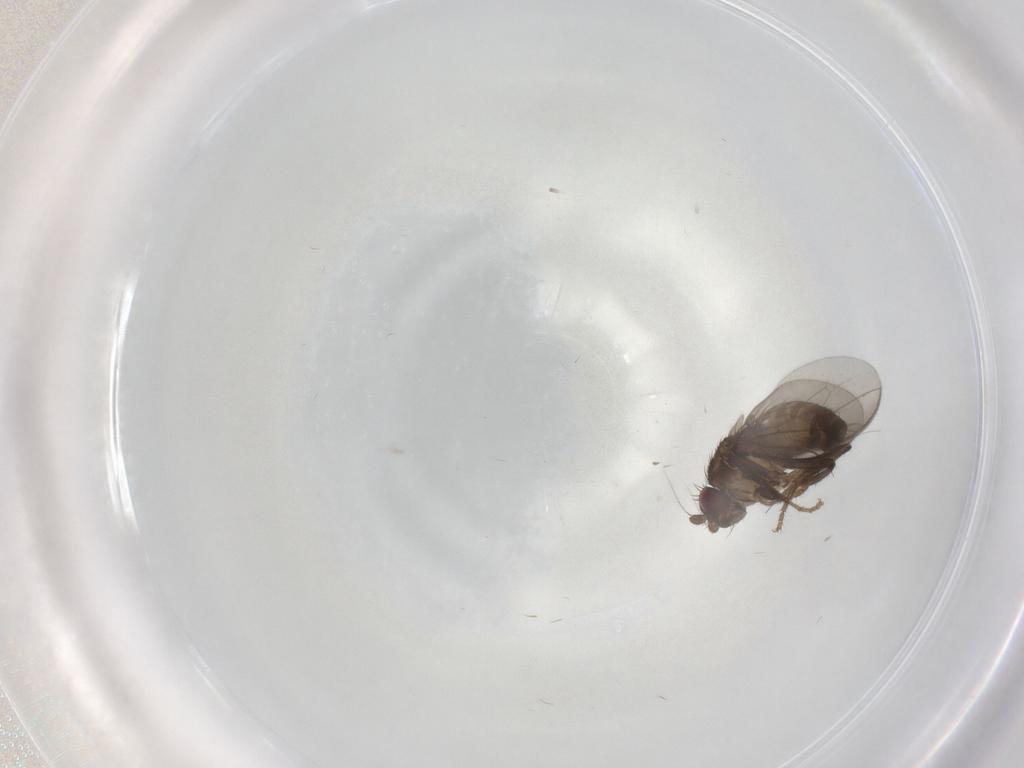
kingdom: Animalia
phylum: Arthropoda
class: Insecta
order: Diptera
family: Sphaeroceridae
